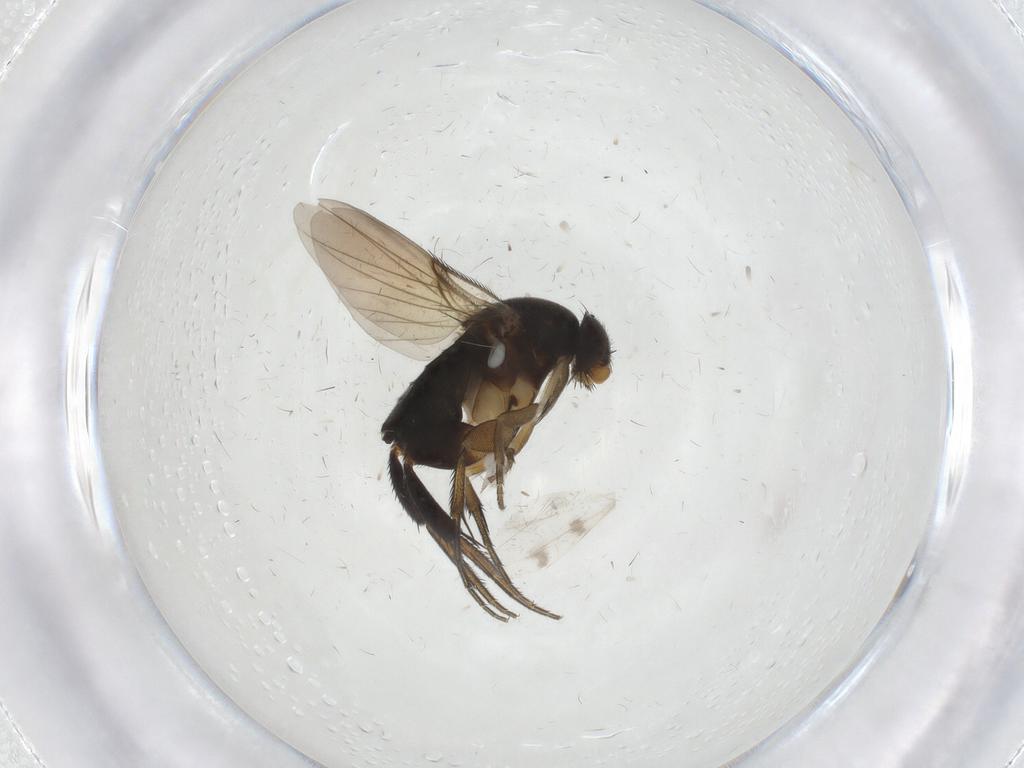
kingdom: Animalia
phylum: Arthropoda
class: Insecta
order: Diptera
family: Phoridae
